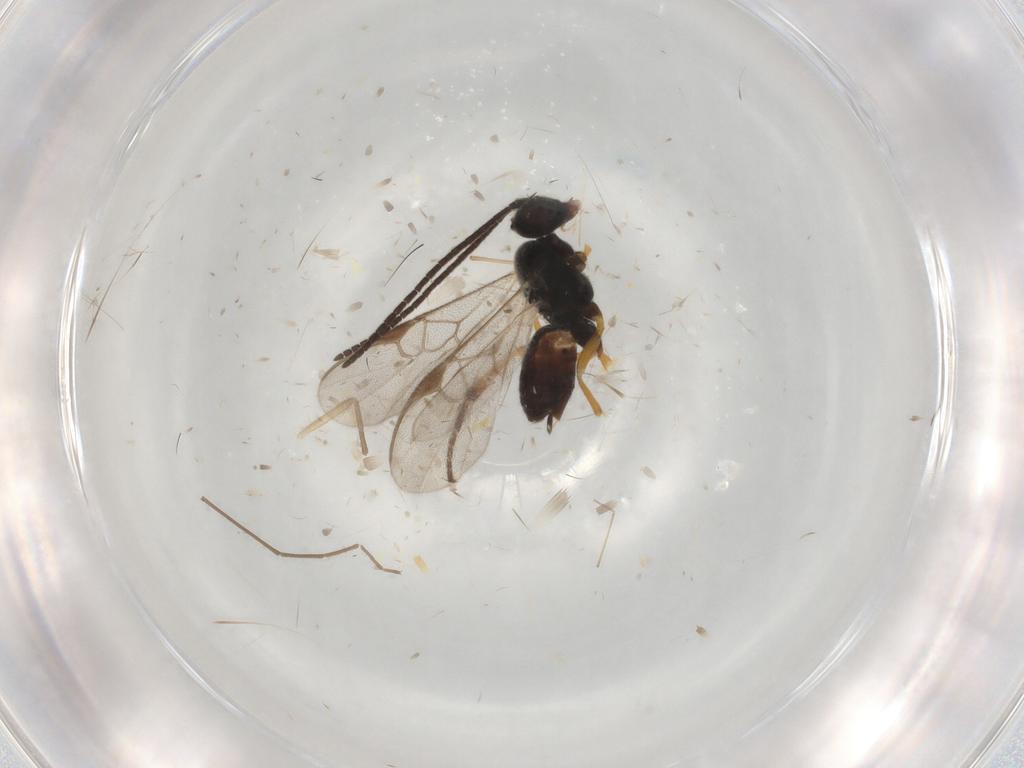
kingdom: Animalia
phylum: Arthropoda
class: Insecta
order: Hymenoptera
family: Braconidae
